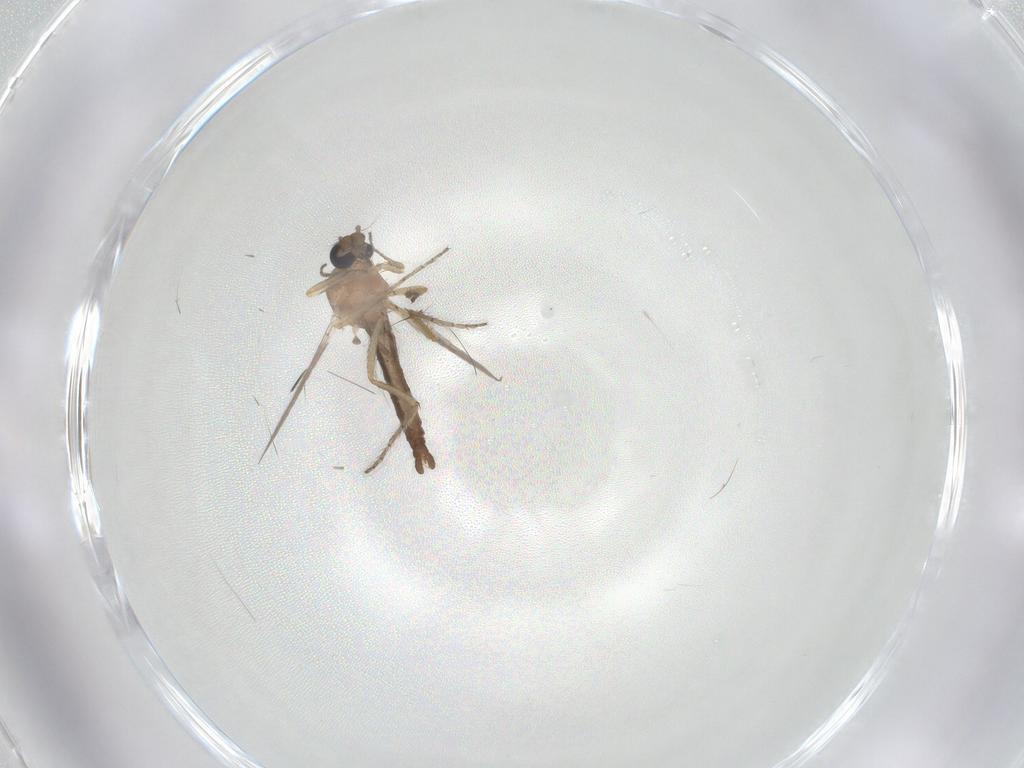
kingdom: Animalia
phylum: Arthropoda
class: Insecta
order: Diptera
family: Ceratopogonidae
